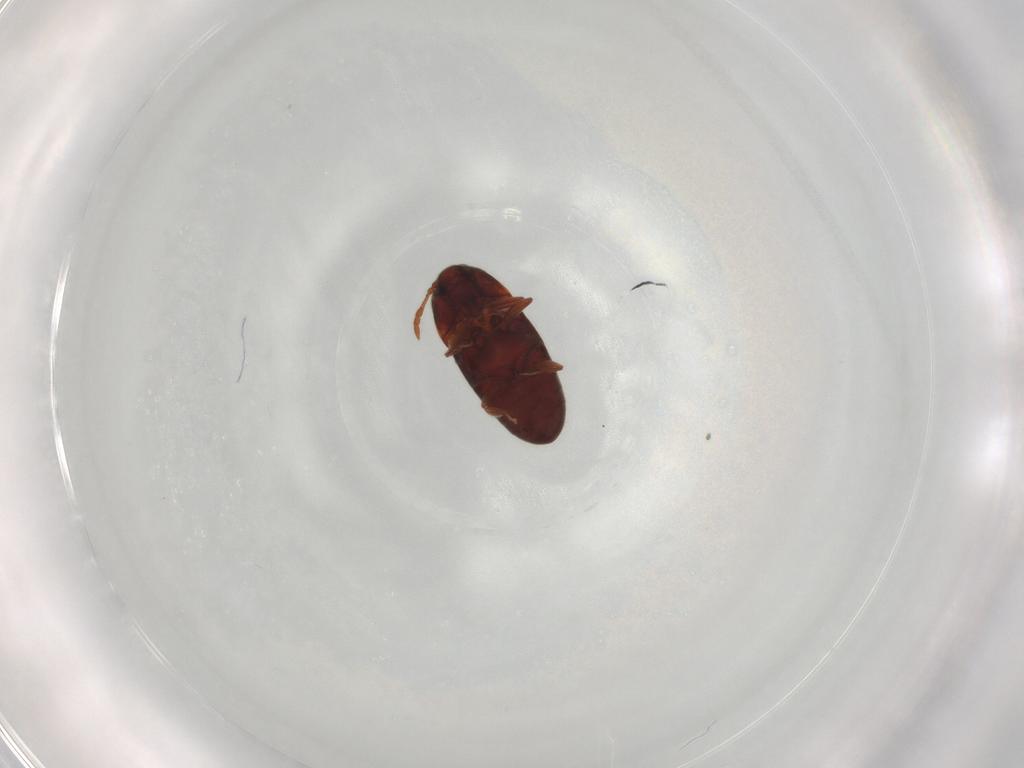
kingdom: Animalia
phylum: Arthropoda
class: Insecta
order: Coleoptera
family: Throscidae
